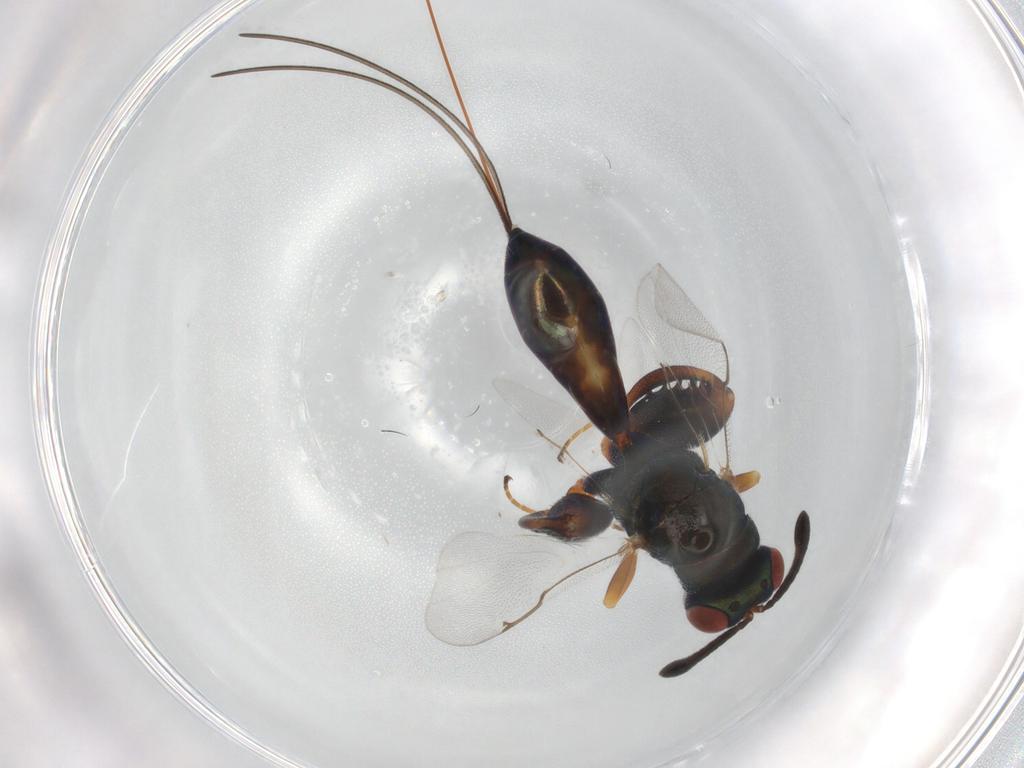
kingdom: Animalia
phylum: Arthropoda
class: Insecta
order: Hymenoptera
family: Torymidae
